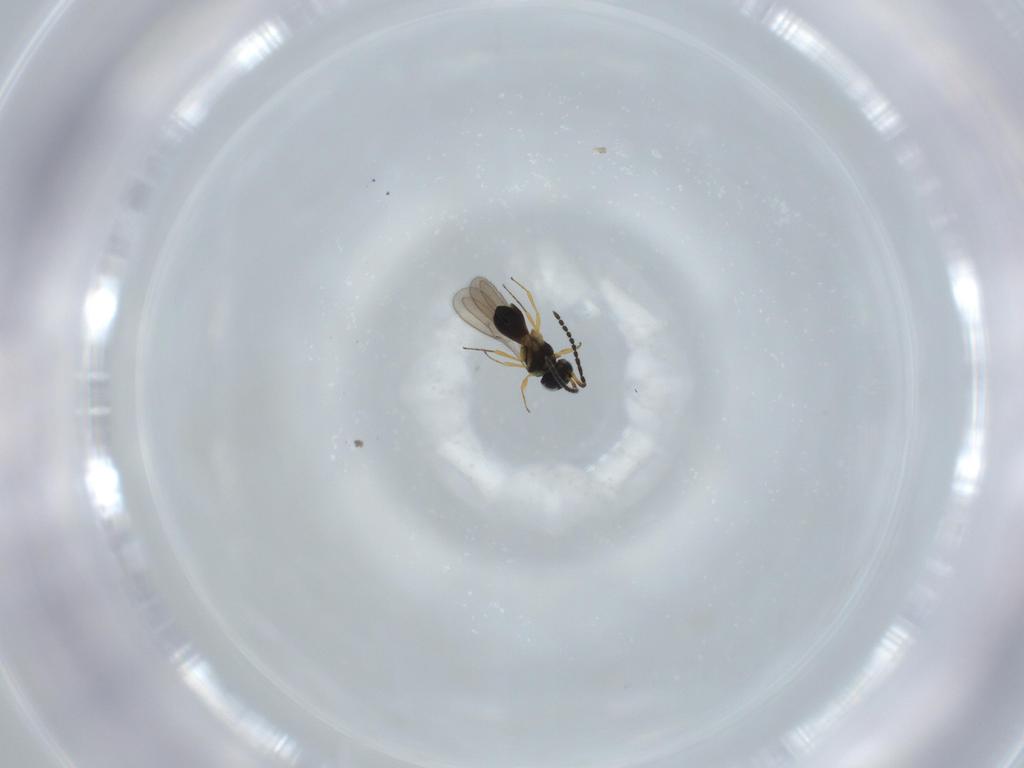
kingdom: Animalia
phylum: Arthropoda
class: Insecta
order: Hymenoptera
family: Scelionidae
